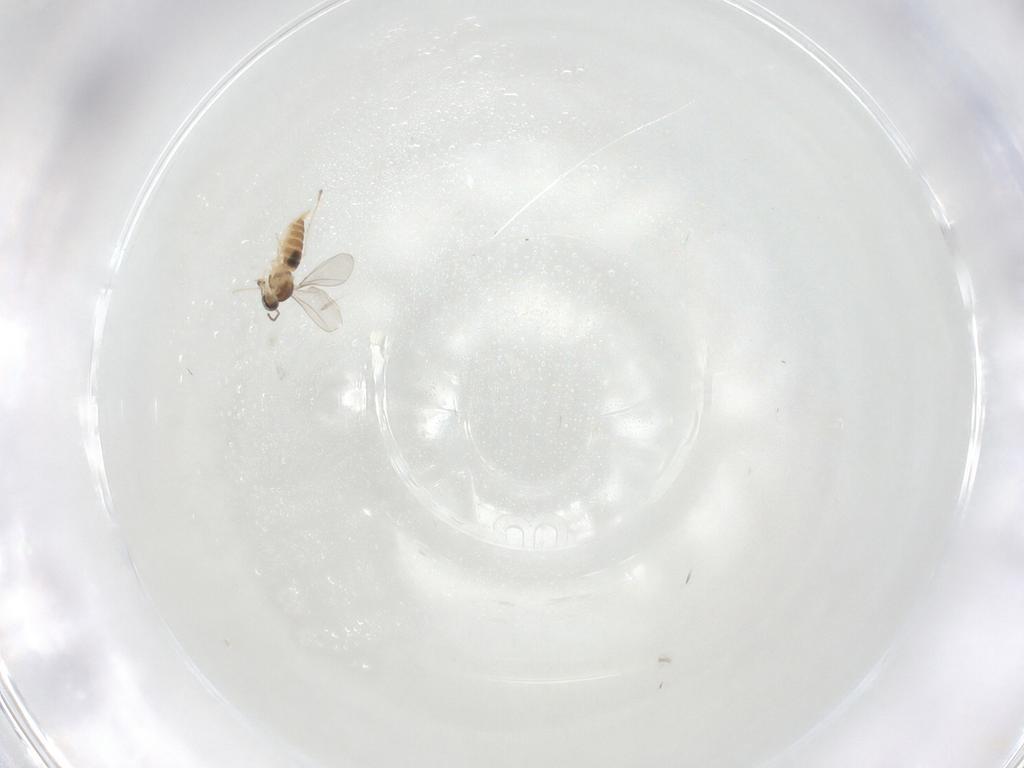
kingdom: Animalia
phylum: Arthropoda
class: Insecta
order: Diptera
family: Cecidomyiidae
